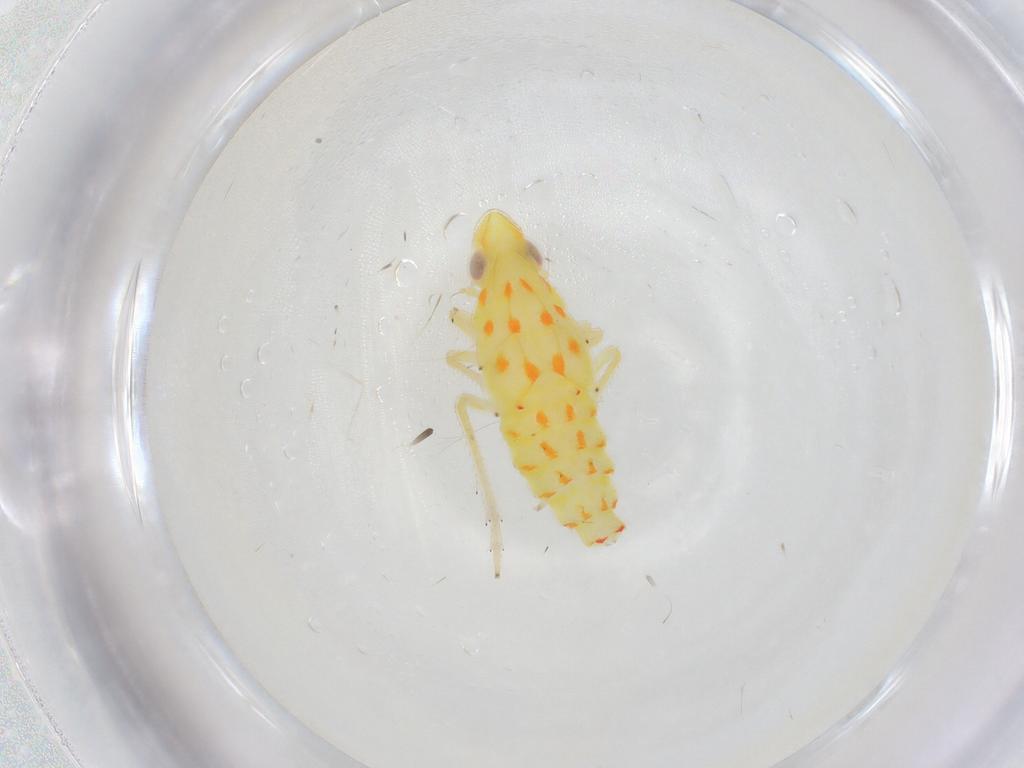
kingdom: Animalia
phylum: Arthropoda
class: Insecta
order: Hemiptera
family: Tropiduchidae
